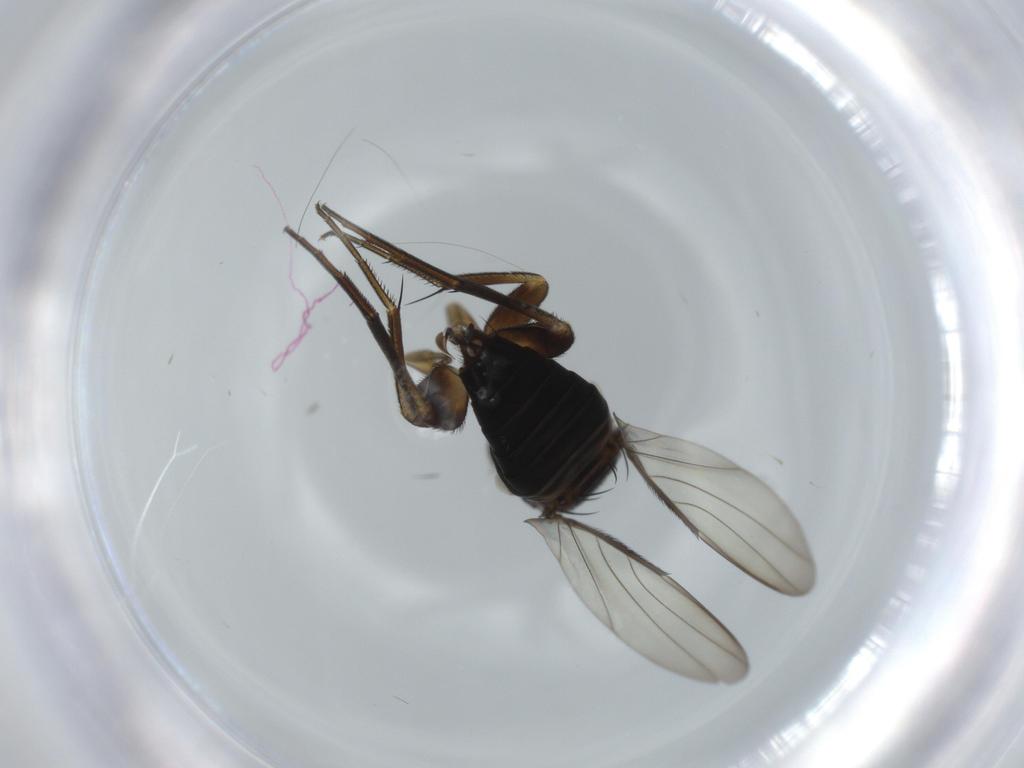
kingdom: Animalia
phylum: Arthropoda
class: Insecta
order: Diptera
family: Phoridae
